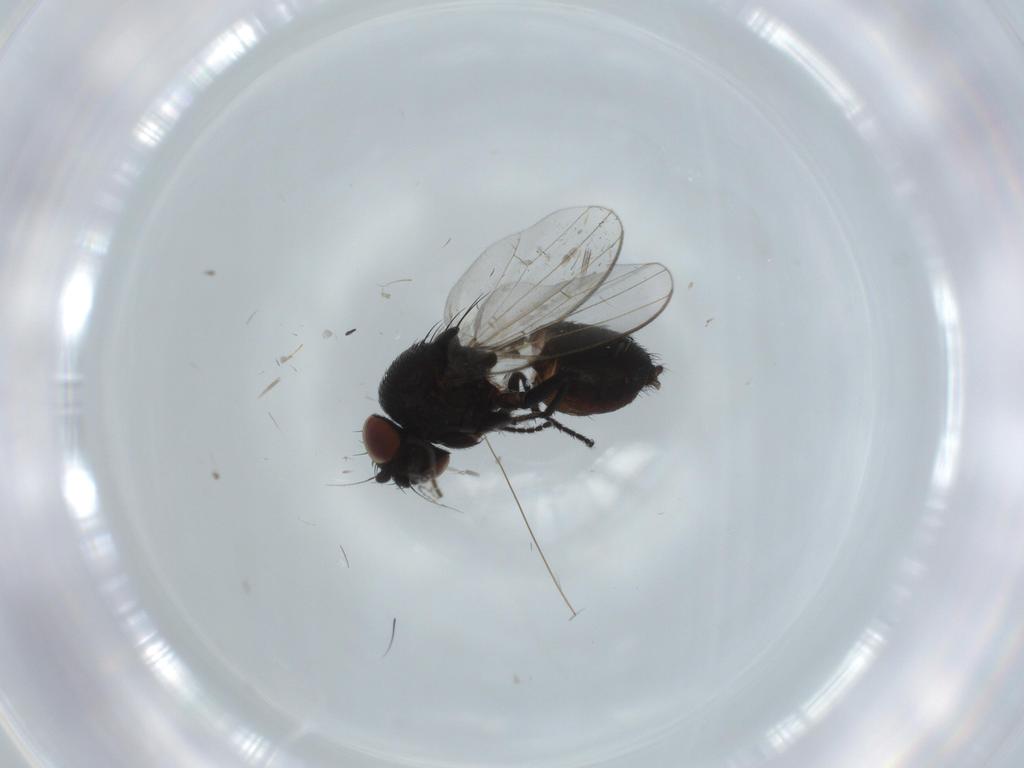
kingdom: Animalia
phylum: Arthropoda
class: Insecta
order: Diptera
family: Milichiidae
